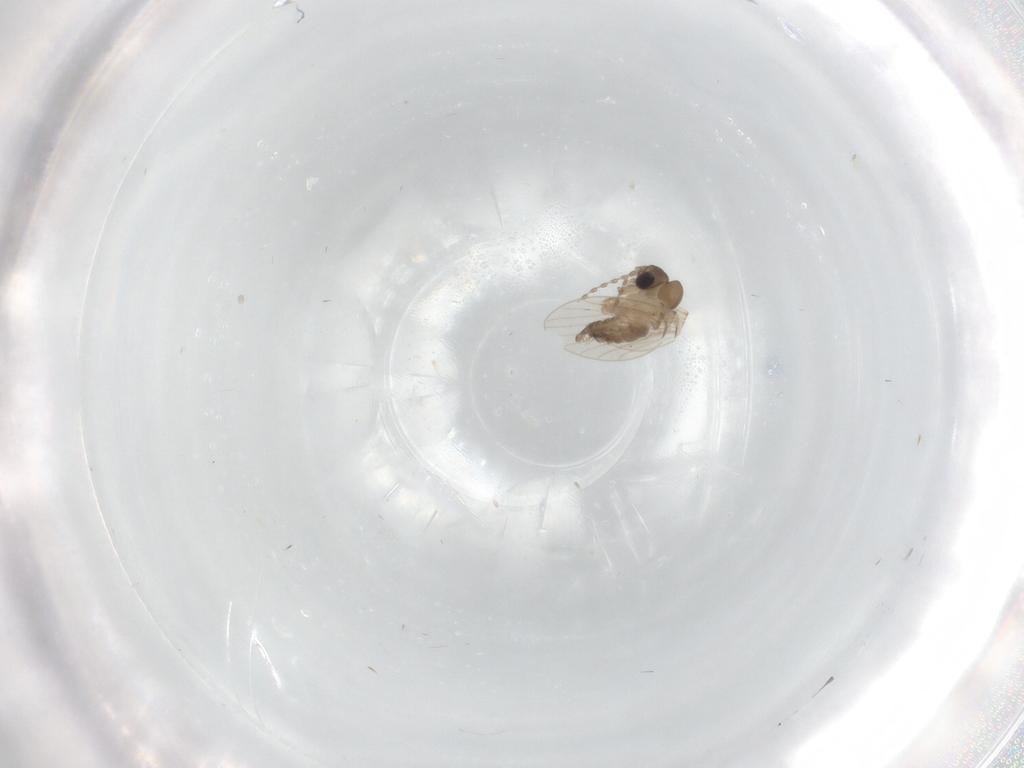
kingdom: Animalia
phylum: Arthropoda
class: Insecta
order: Diptera
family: Psychodidae
